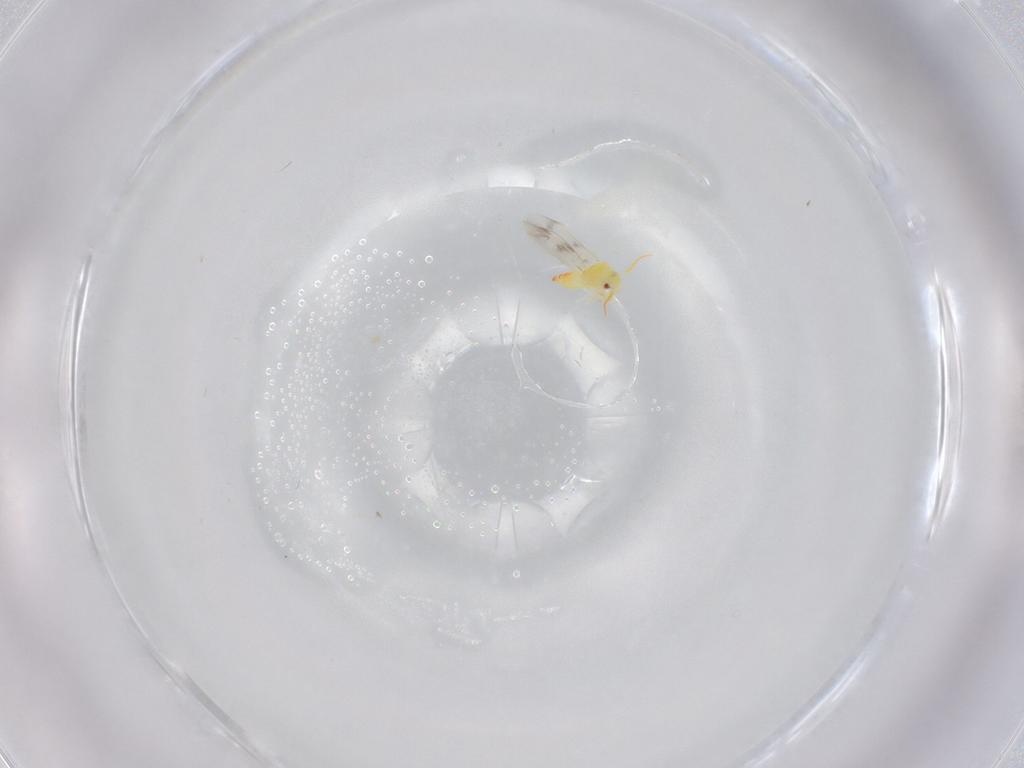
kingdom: Animalia
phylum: Arthropoda
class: Insecta
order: Hemiptera
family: Aleyrodidae
